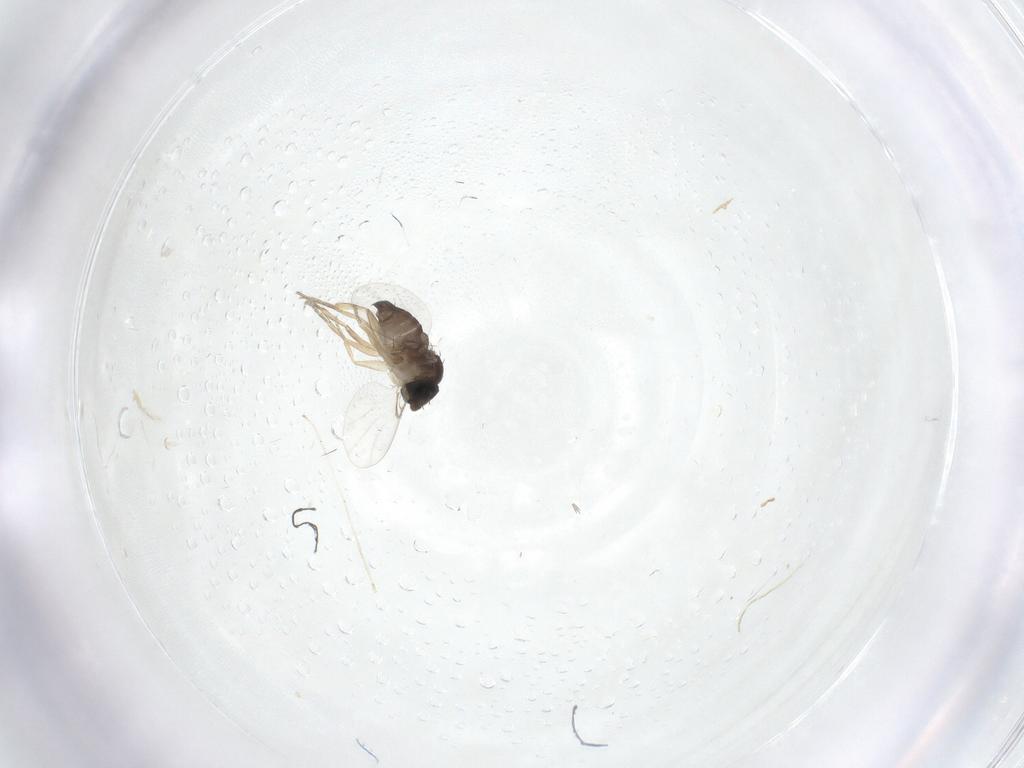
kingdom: Animalia
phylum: Arthropoda
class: Insecta
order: Diptera
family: Phoridae
